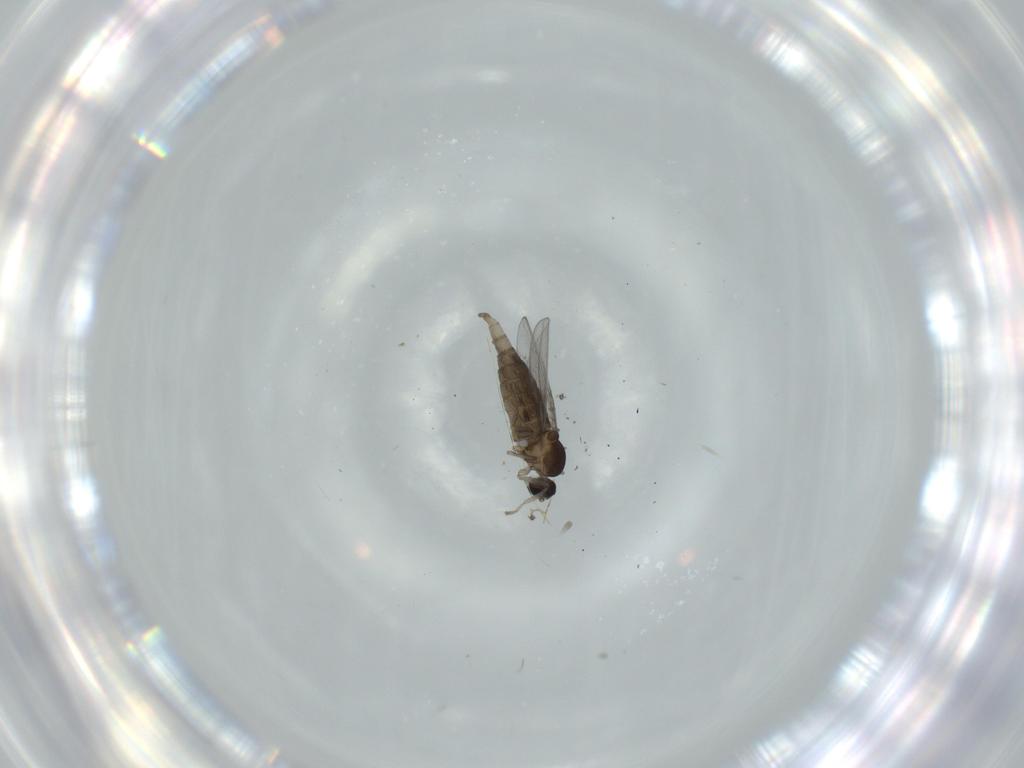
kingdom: Animalia
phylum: Arthropoda
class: Insecta
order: Diptera
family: Cecidomyiidae
